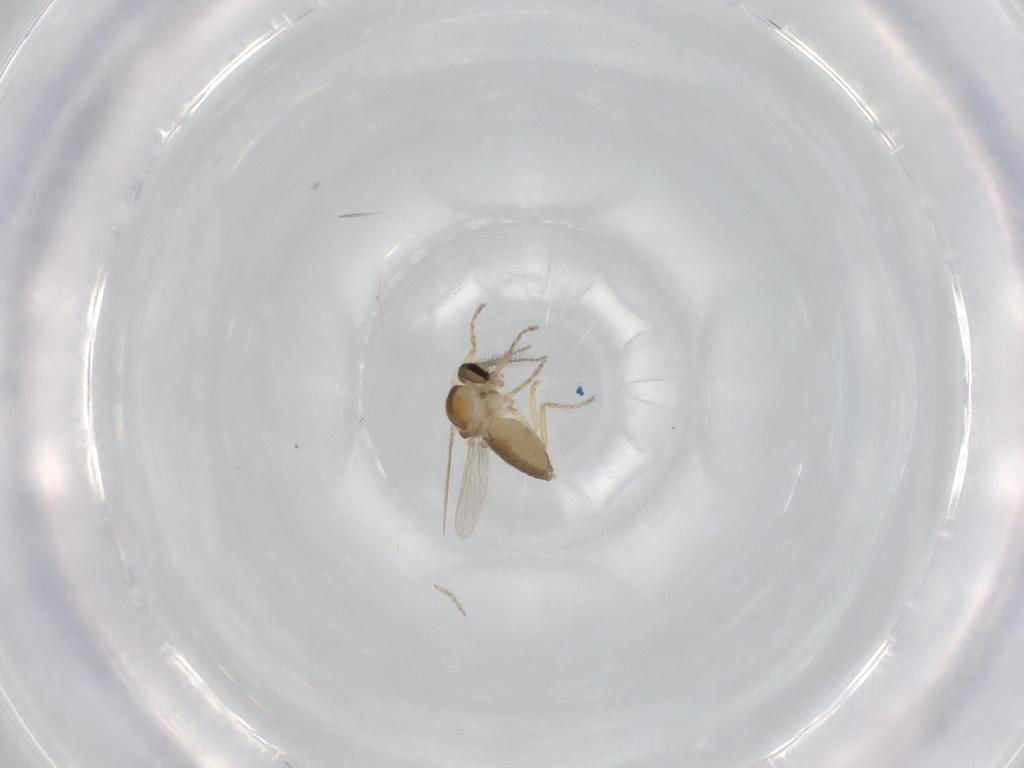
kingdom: Animalia
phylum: Arthropoda
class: Insecta
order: Diptera
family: Ceratopogonidae
